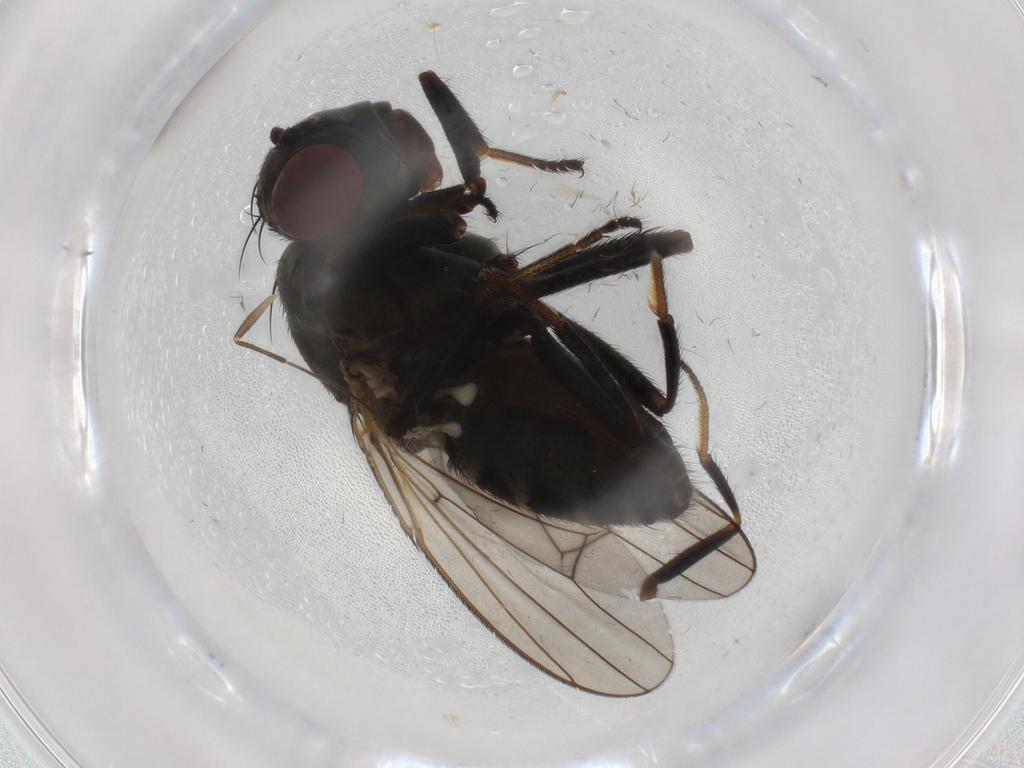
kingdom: Animalia
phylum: Arthropoda
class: Insecta
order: Diptera
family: Ephydridae
